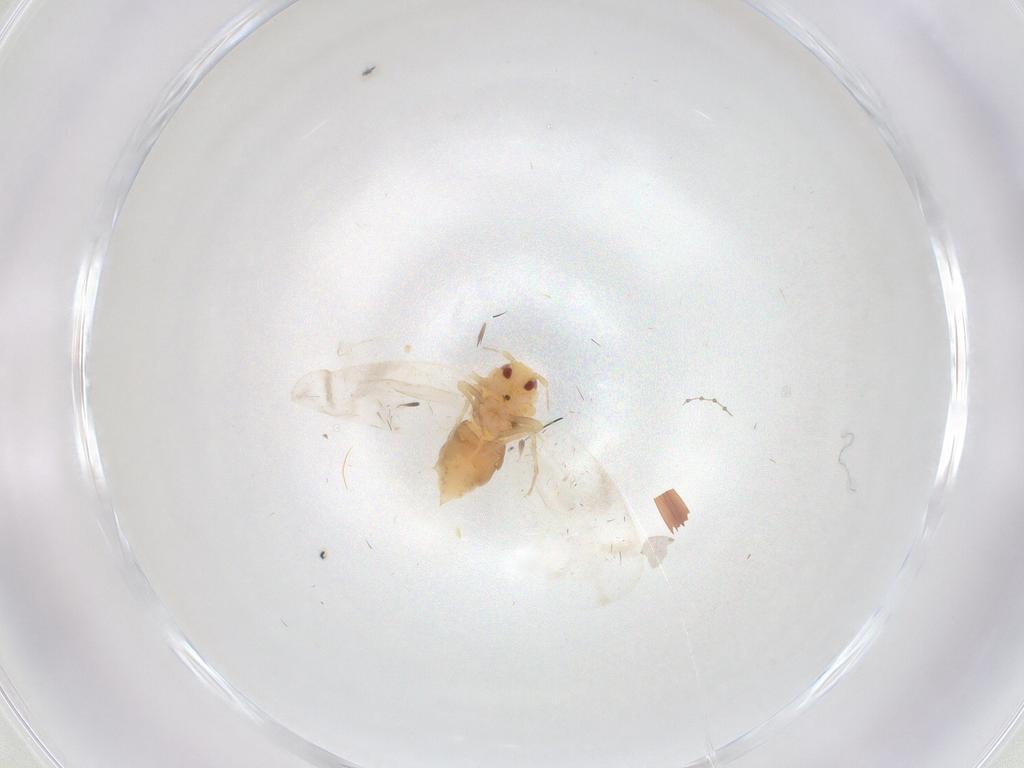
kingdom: Animalia
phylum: Arthropoda
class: Insecta
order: Hemiptera
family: Aleyrodidae
